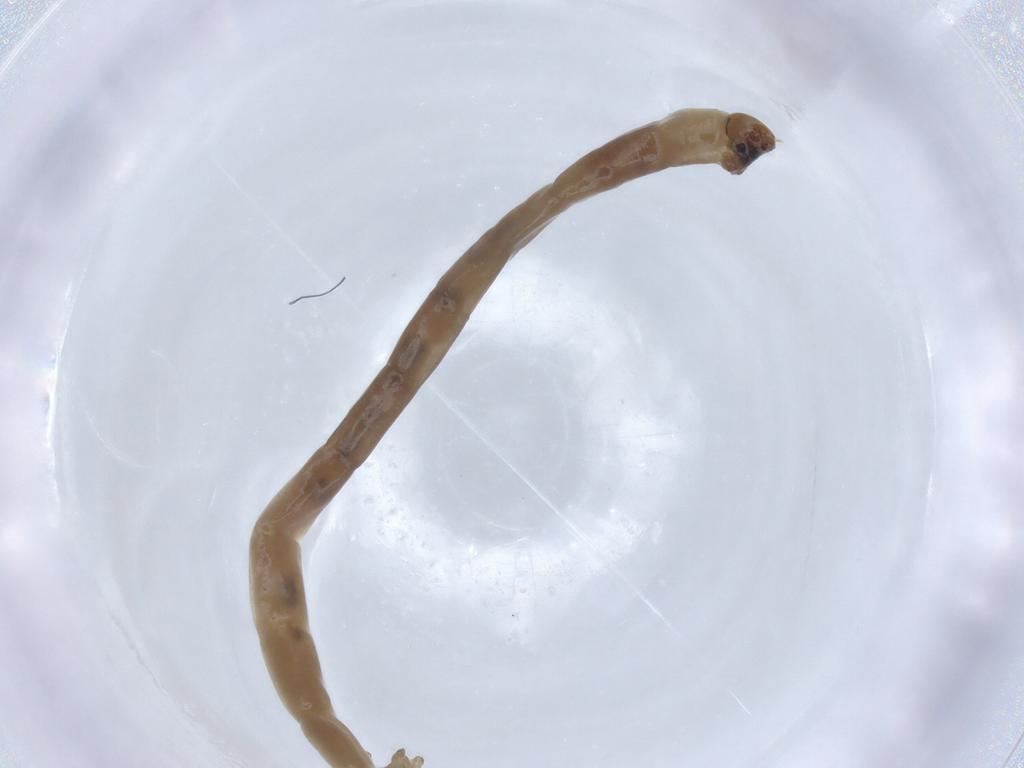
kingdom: Animalia
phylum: Arthropoda
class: Insecta
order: Diptera
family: Chironomidae
